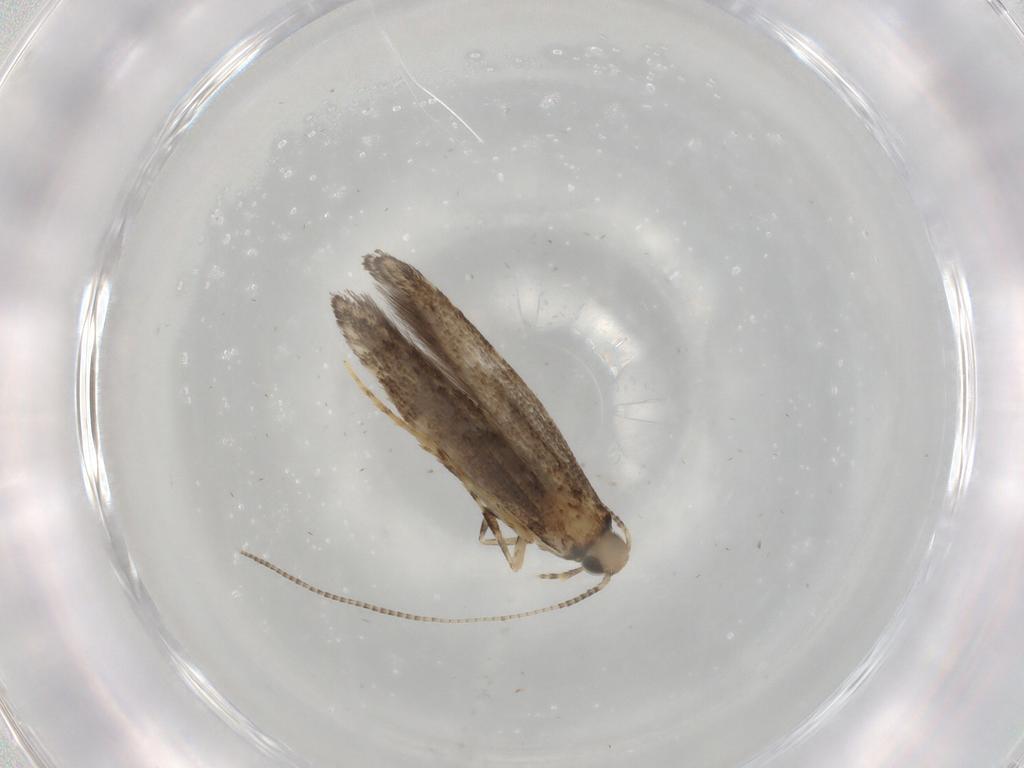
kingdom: Animalia
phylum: Arthropoda
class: Insecta
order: Lepidoptera
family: Gracillariidae
